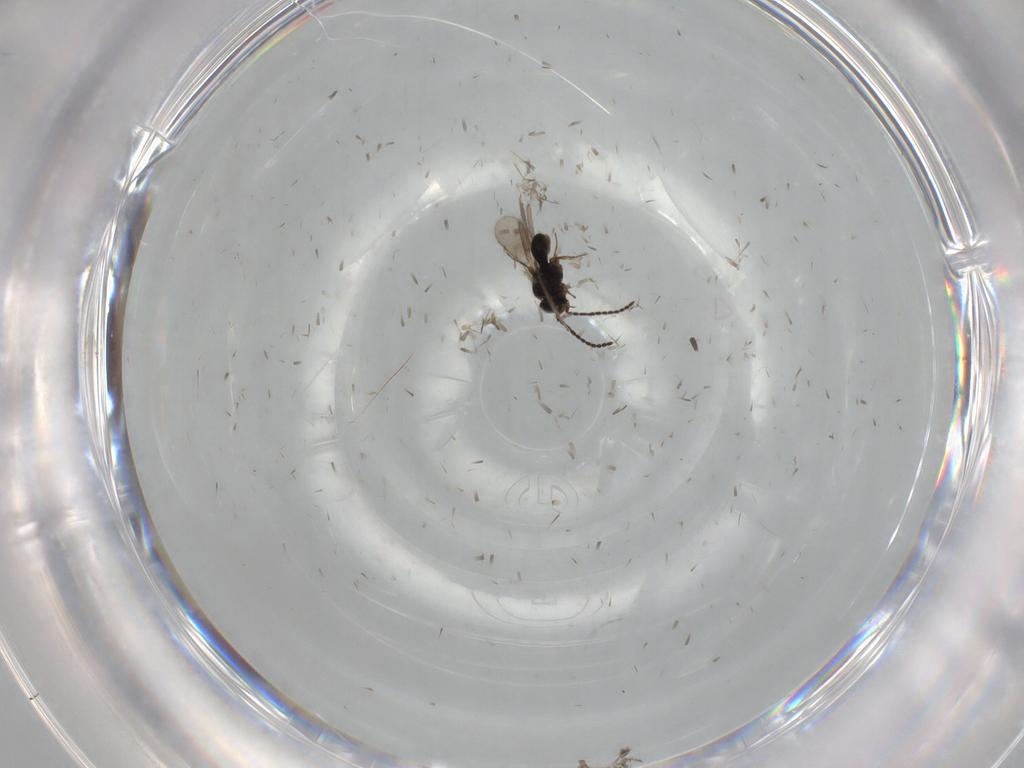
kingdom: Animalia
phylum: Arthropoda
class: Insecta
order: Hymenoptera
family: Scelionidae
